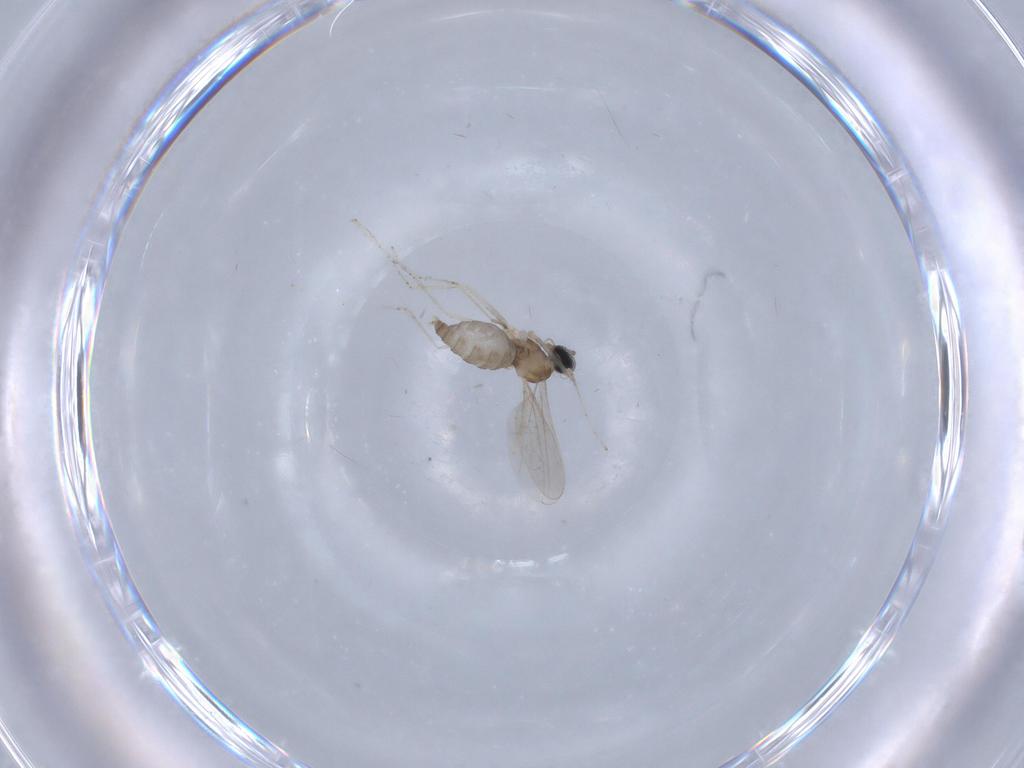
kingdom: Animalia
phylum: Arthropoda
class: Insecta
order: Diptera
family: Cecidomyiidae
